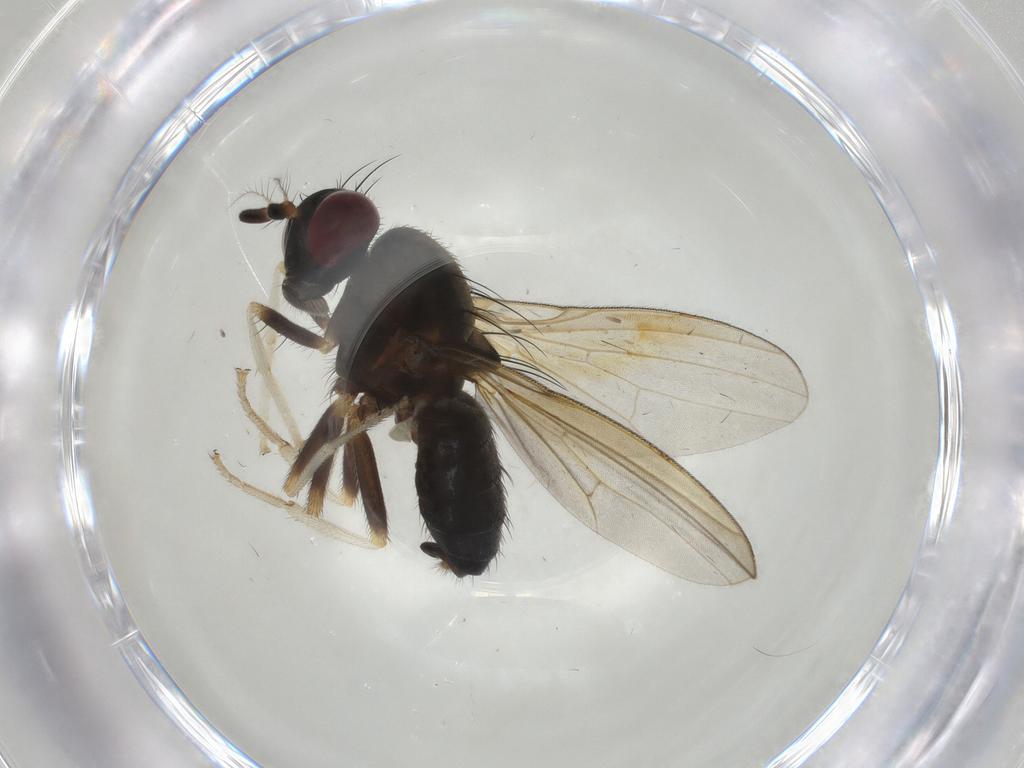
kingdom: Animalia
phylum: Arthropoda
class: Insecta
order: Diptera
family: Lauxaniidae
